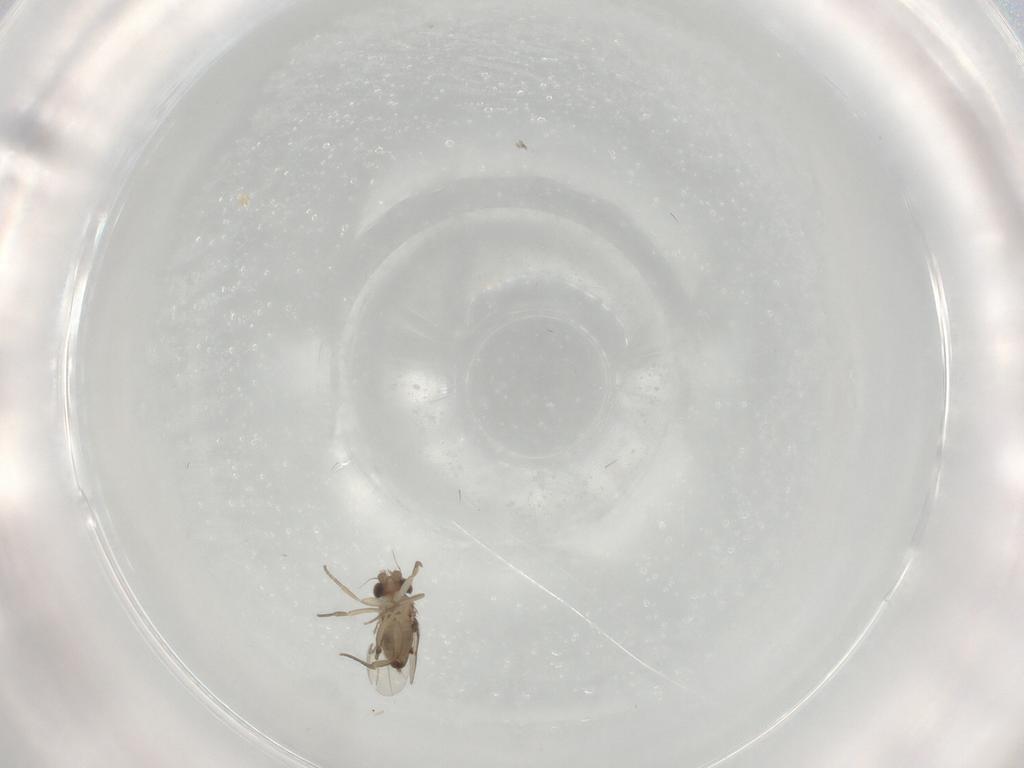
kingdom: Animalia
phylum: Arthropoda
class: Insecta
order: Diptera
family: Phoridae
